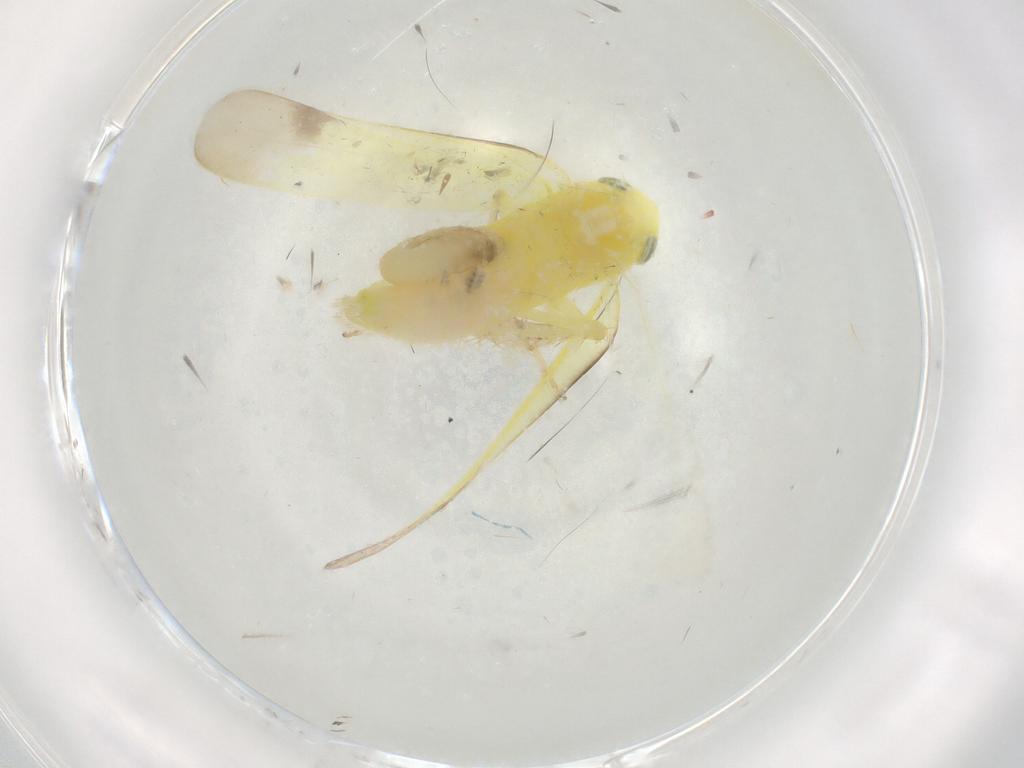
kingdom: Animalia
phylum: Arthropoda
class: Insecta
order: Hemiptera
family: Cicadellidae
